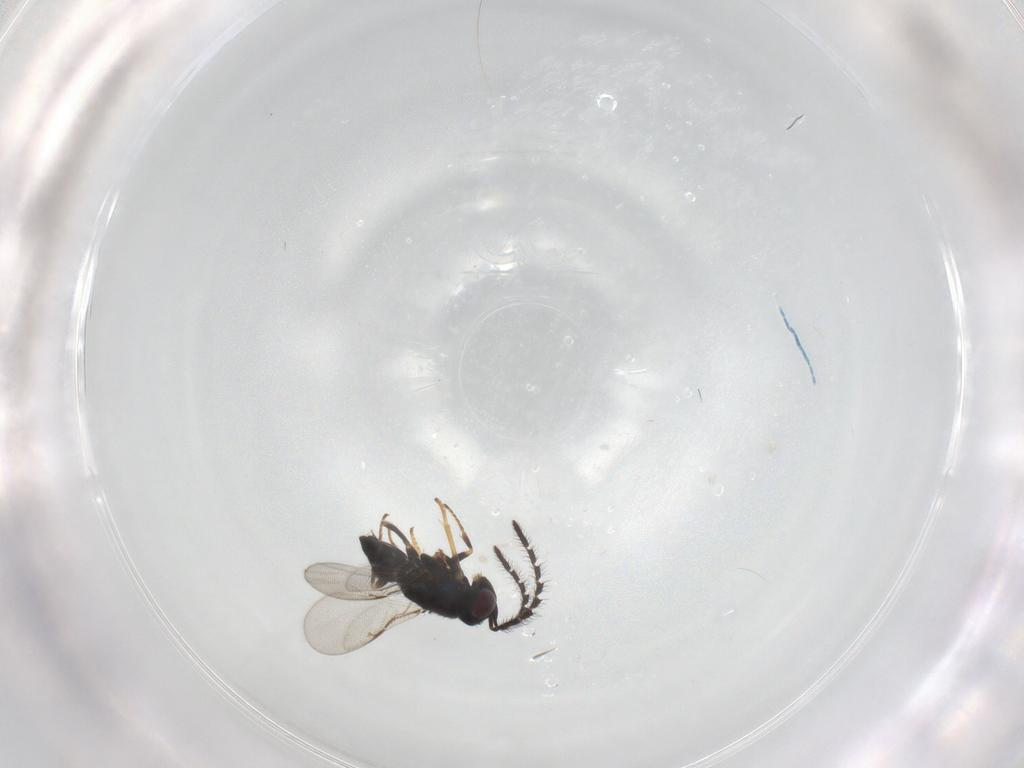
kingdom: Animalia
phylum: Arthropoda
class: Insecta
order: Hymenoptera
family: Encyrtidae
